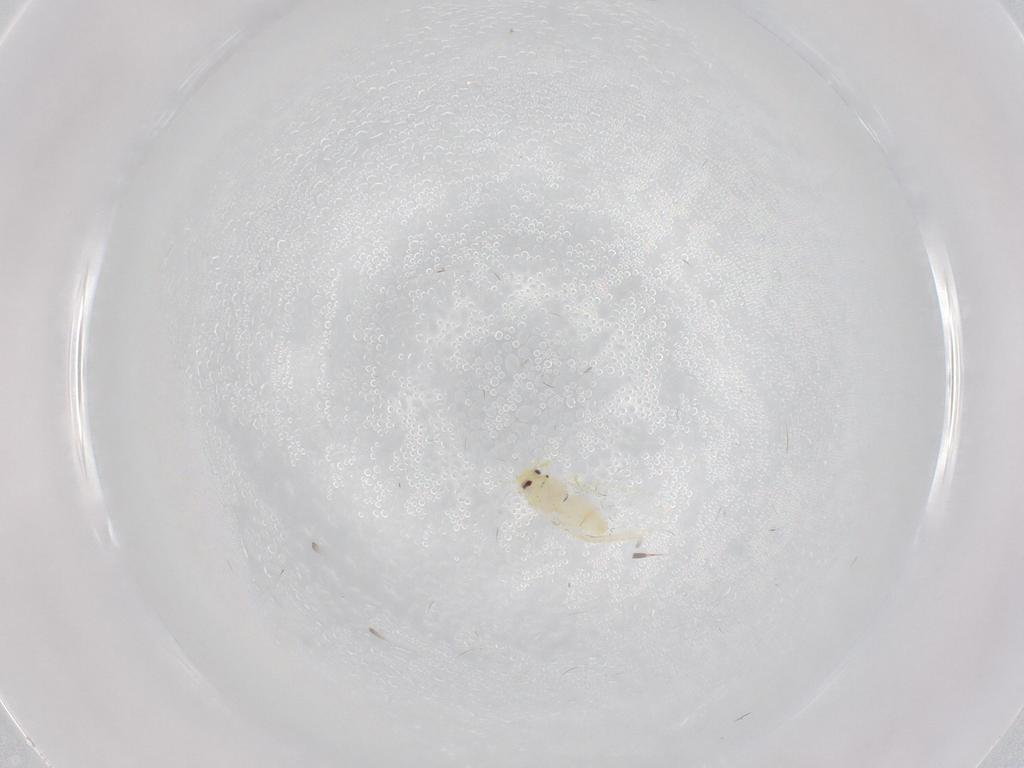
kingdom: Animalia
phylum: Arthropoda
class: Insecta
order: Hemiptera
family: Aleyrodidae
